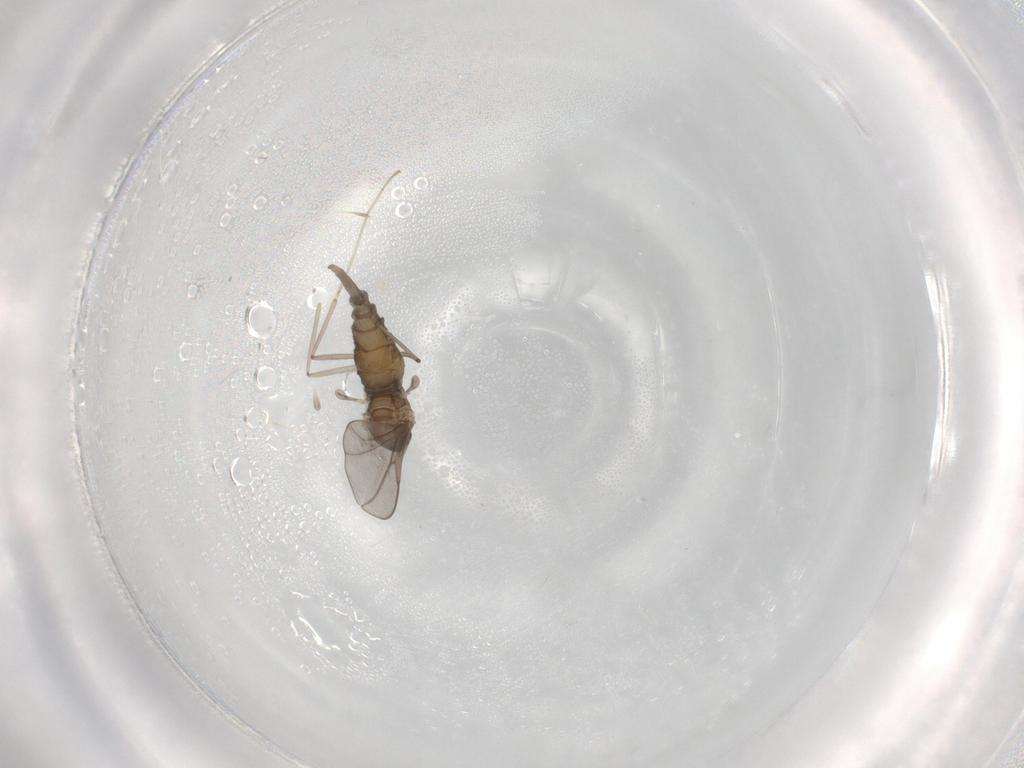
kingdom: Animalia
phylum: Arthropoda
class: Insecta
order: Diptera
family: Cecidomyiidae
